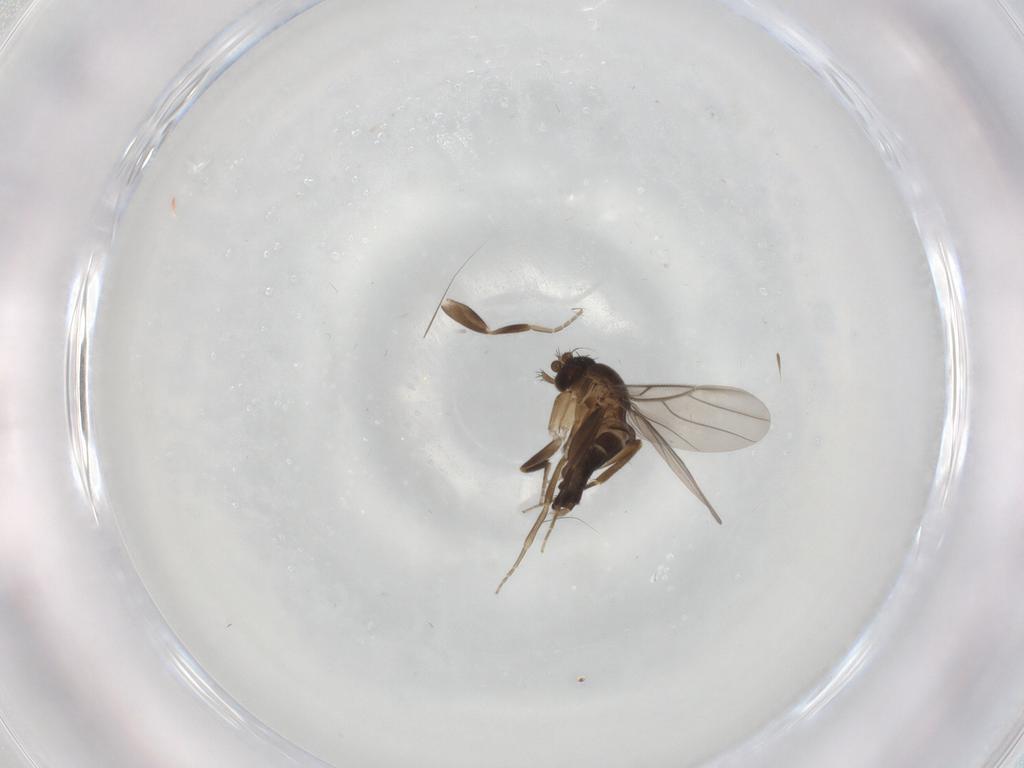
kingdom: Animalia
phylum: Arthropoda
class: Insecta
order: Diptera
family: Phoridae
